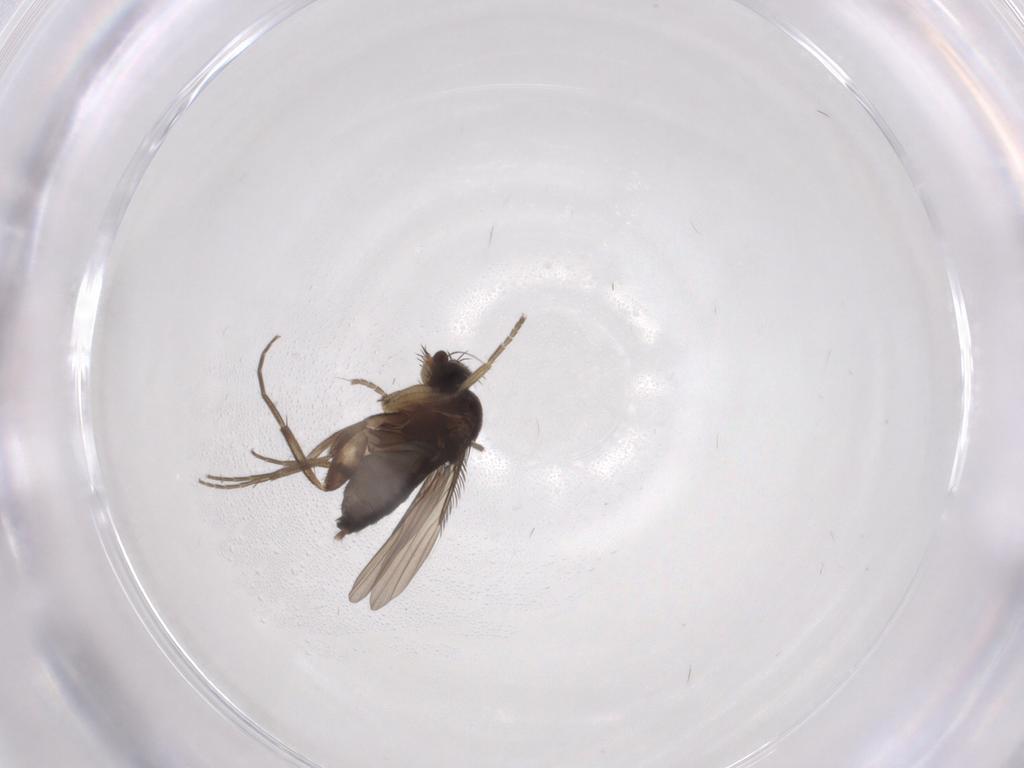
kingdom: Animalia
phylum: Arthropoda
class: Insecta
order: Diptera
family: Phoridae
